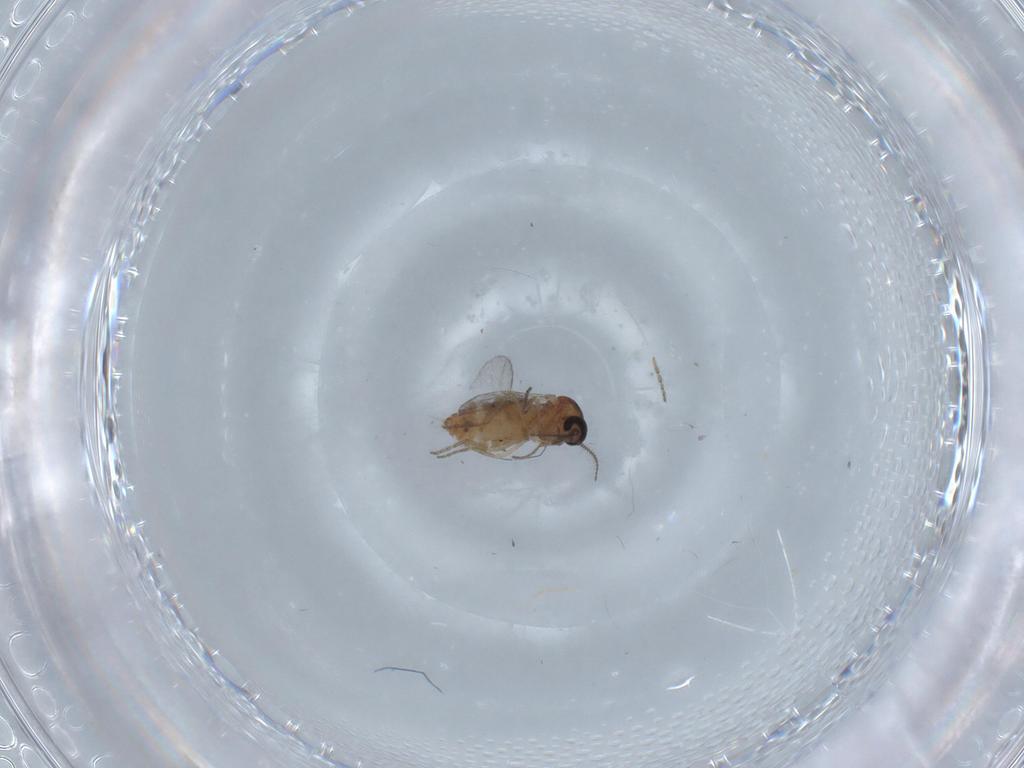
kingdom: Animalia
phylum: Arthropoda
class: Insecta
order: Diptera
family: Ceratopogonidae
